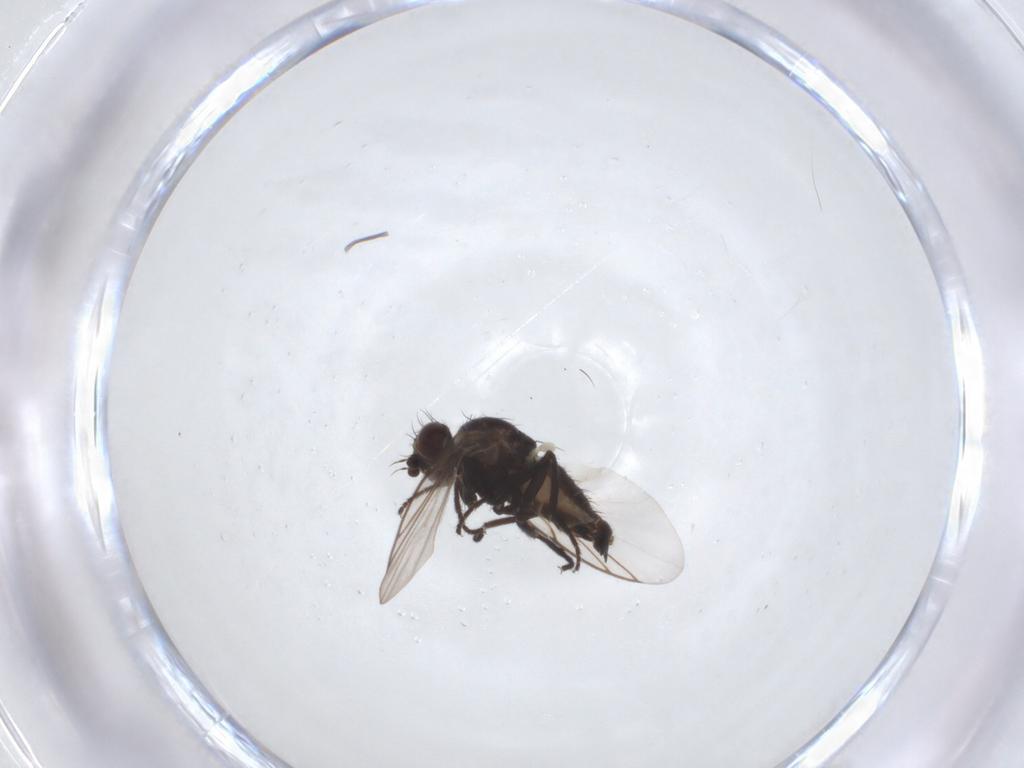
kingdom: Animalia
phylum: Arthropoda
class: Insecta
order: Diptera
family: Agromyzidae
